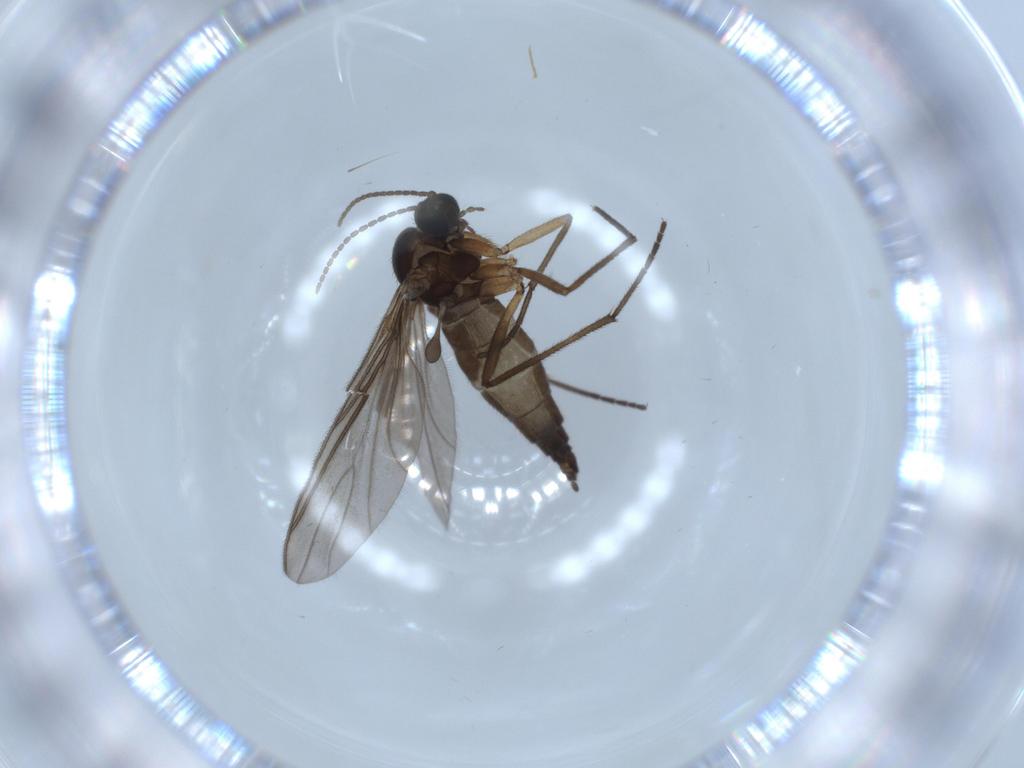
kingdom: Animalia
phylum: Arthropoda
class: Insecta
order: Diptera
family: Sciaridae
